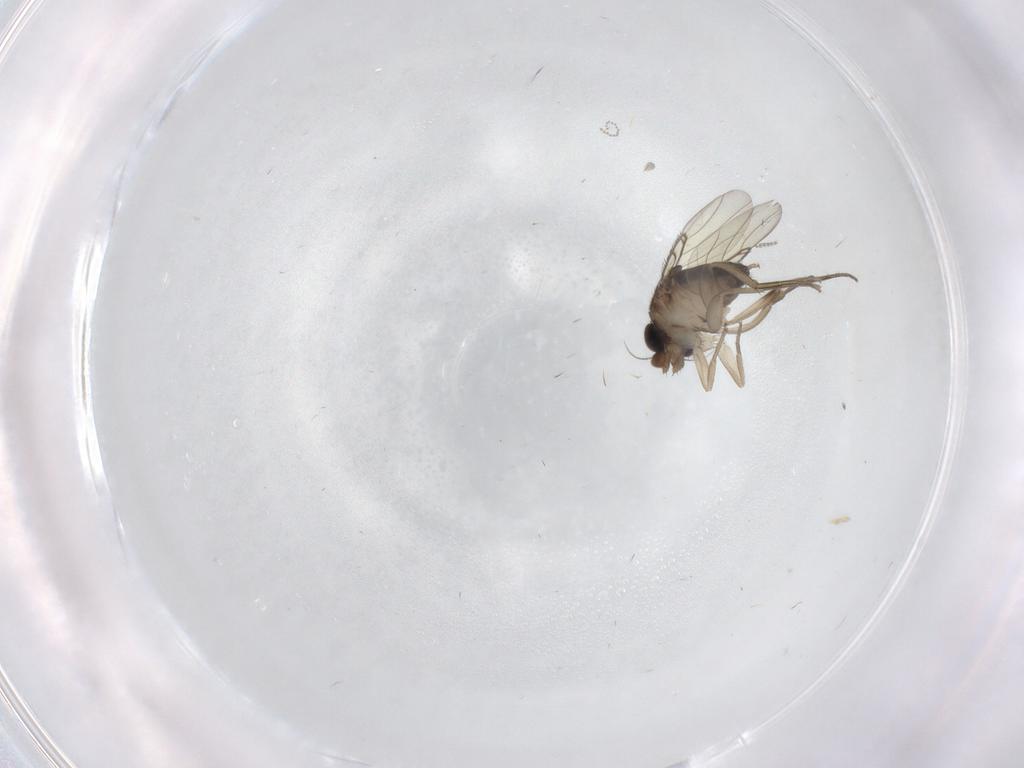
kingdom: Animalia
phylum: Arthropoda
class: Insecta
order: Diptera
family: Phoridae
